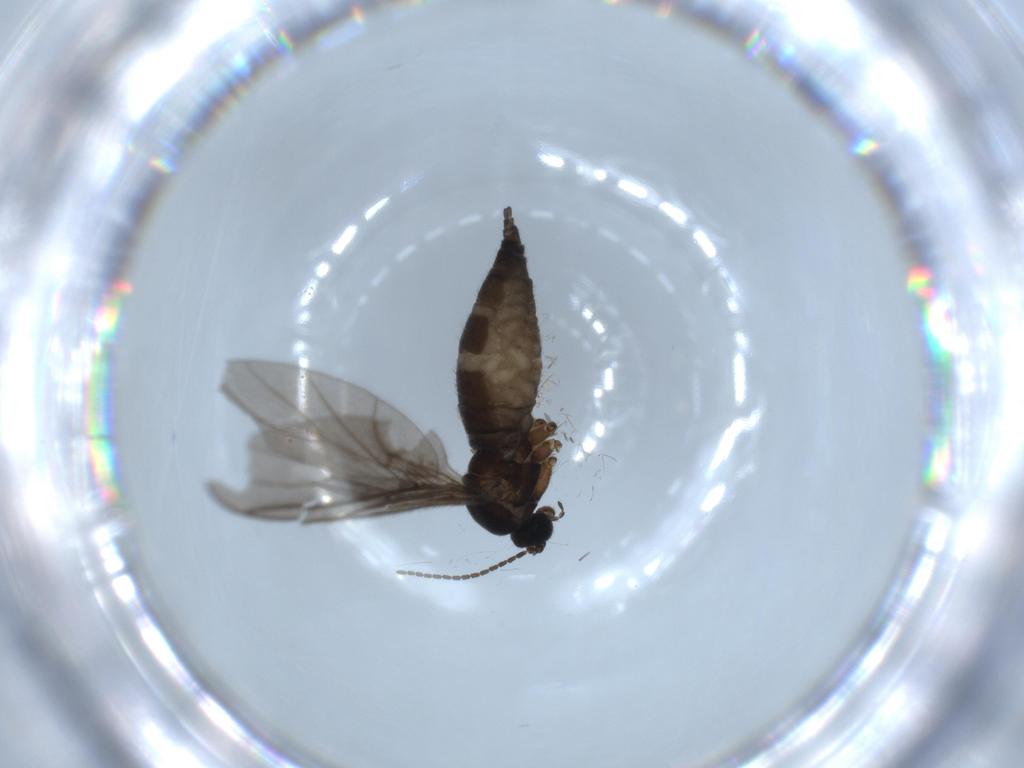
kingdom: Animalia
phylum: Arthropoda
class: Insecta
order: Diptera
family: Sciaridae
